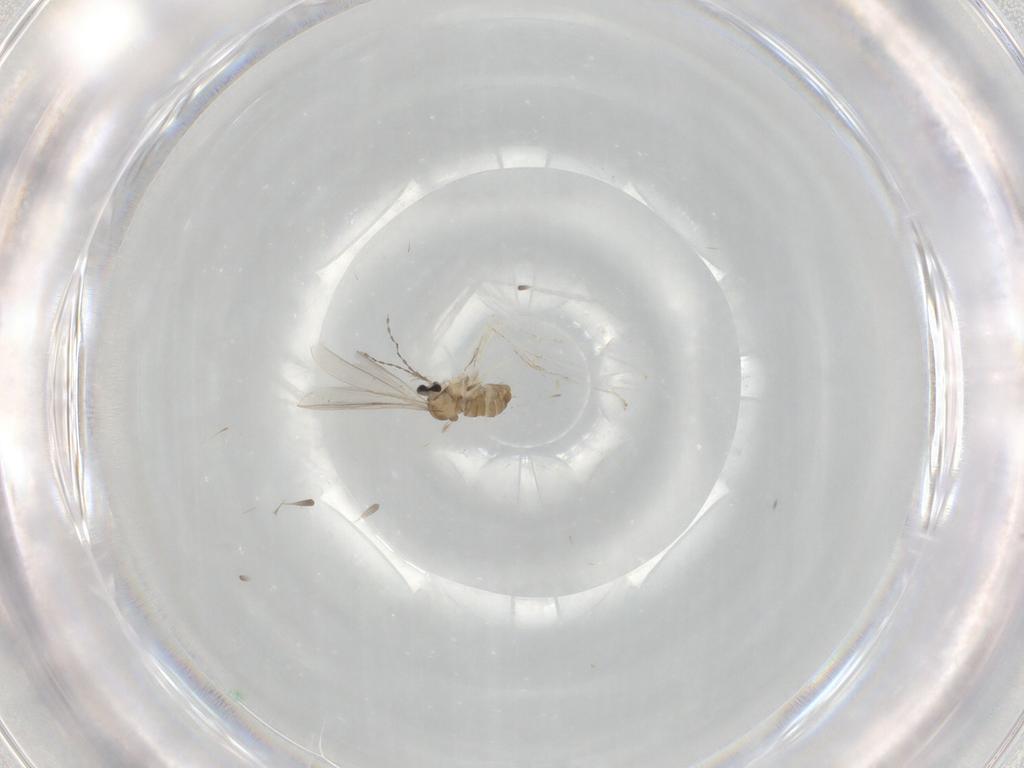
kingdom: Animalia
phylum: Arthropoda
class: Insecta
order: Diptera
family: Cecidomyiidae
